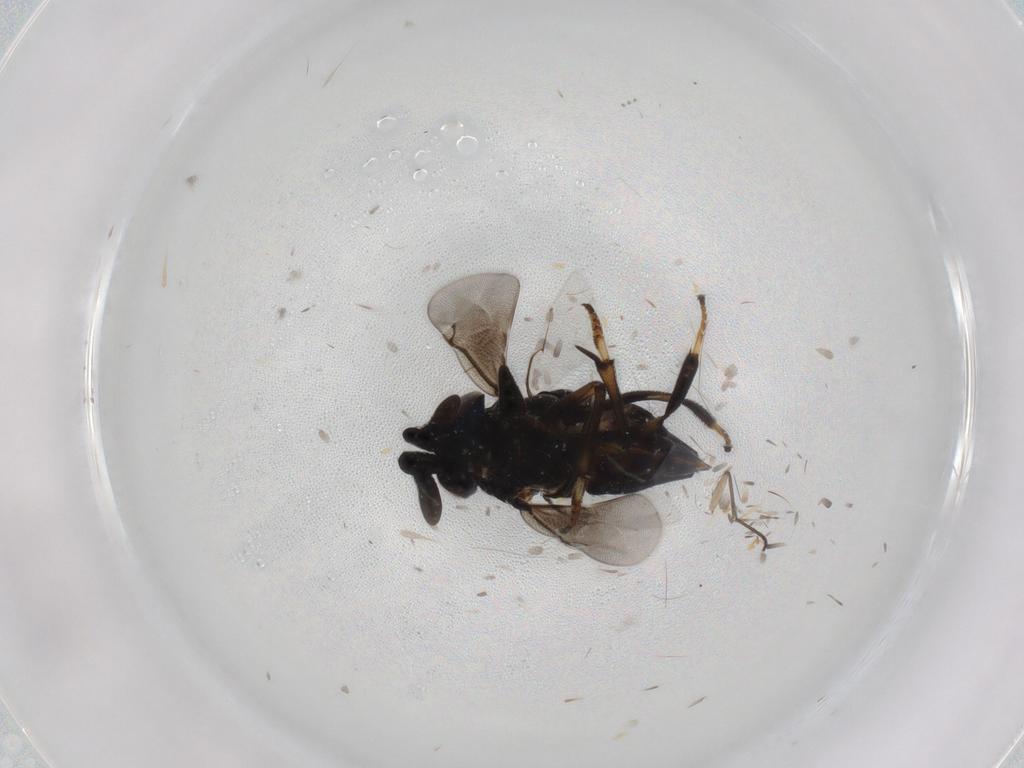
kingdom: Animalia
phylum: Arthropoda
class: Insecta
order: Hymenoptera
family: Encyrtidae
